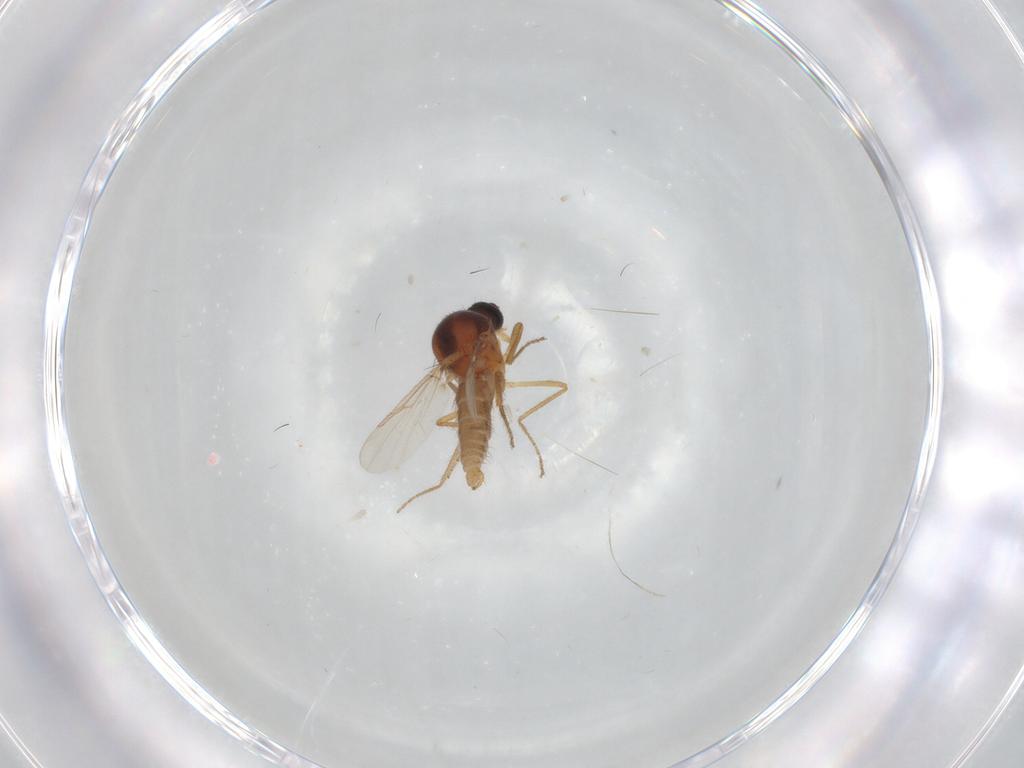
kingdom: Animalia
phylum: Arthropoda
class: Insecta
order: Diptera
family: Ceratopogonidae
